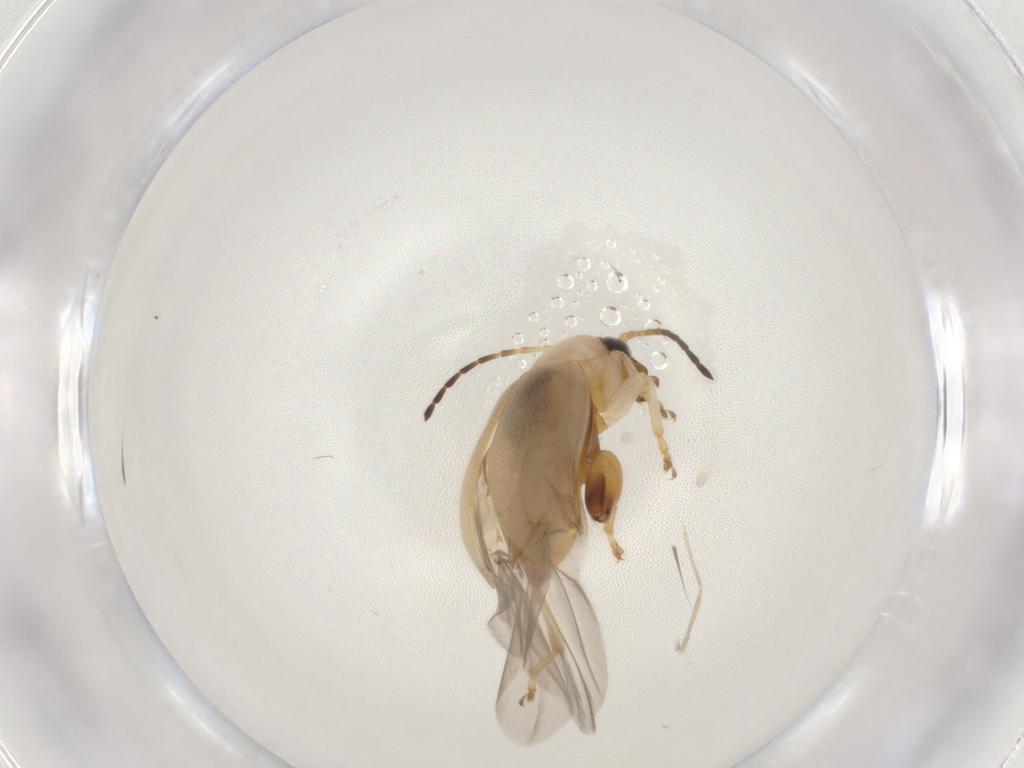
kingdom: Animalia
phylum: Arthropoda
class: Insecta
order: Coleoptera
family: Chrysomelidae
